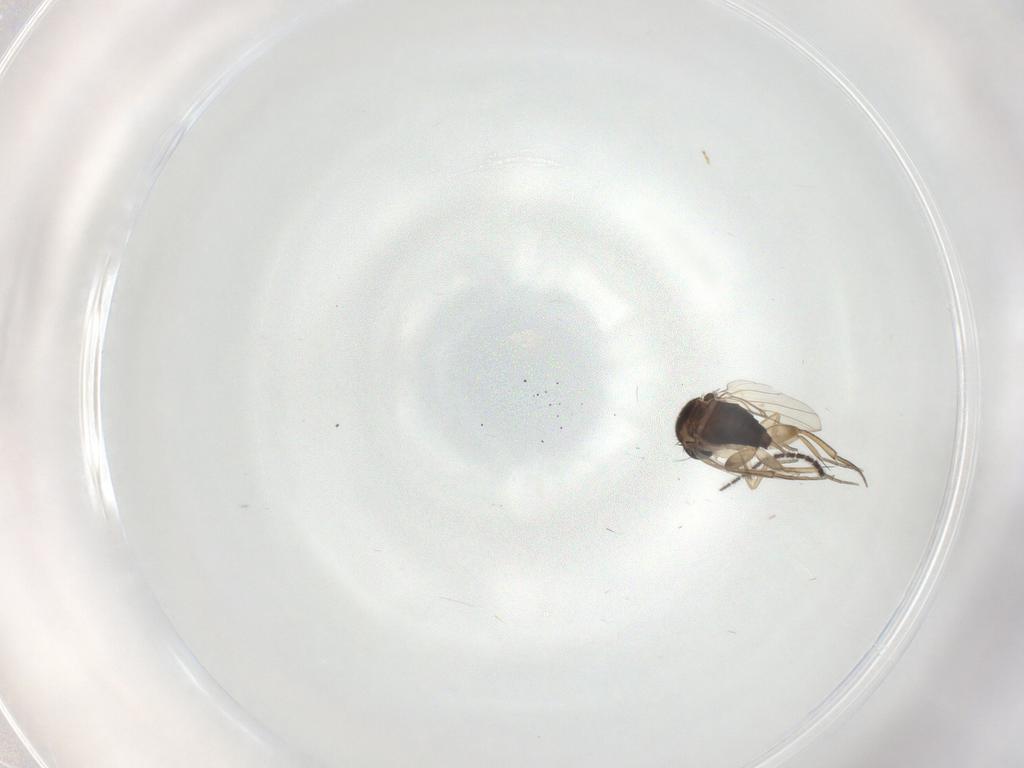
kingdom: Animalia
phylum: Arthropoda
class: Insecta
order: Diptera
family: Phoridae
